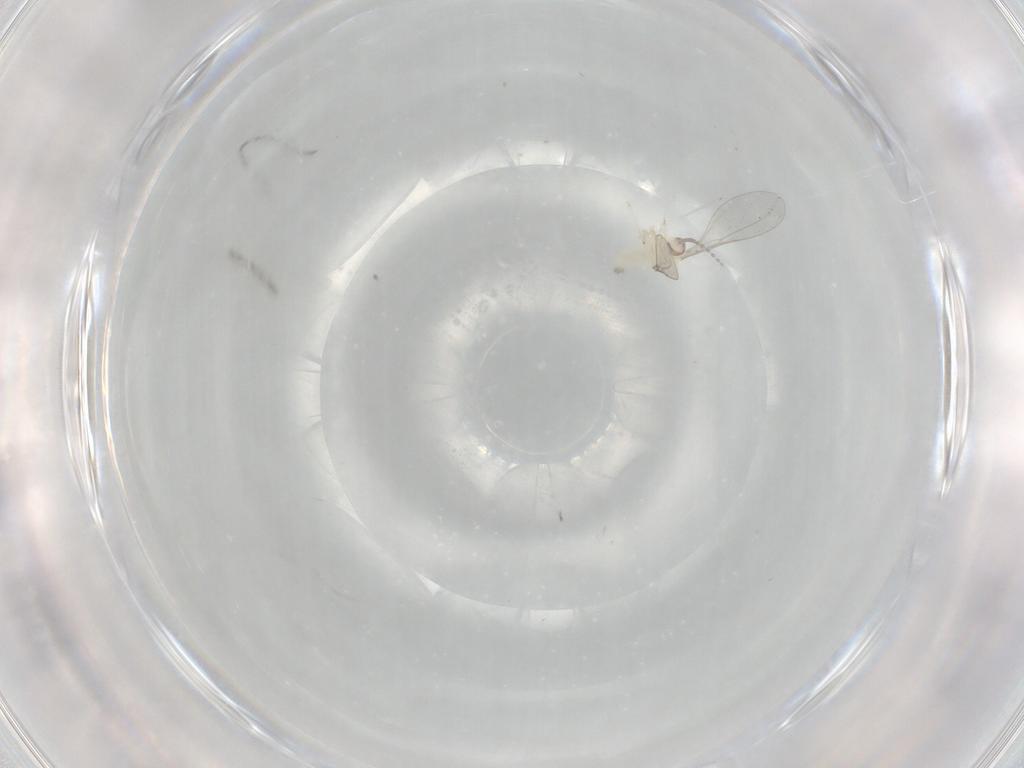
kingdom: Animalia
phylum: Arthropoda
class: Insecta
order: Diptera
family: Cecidomyiidae
